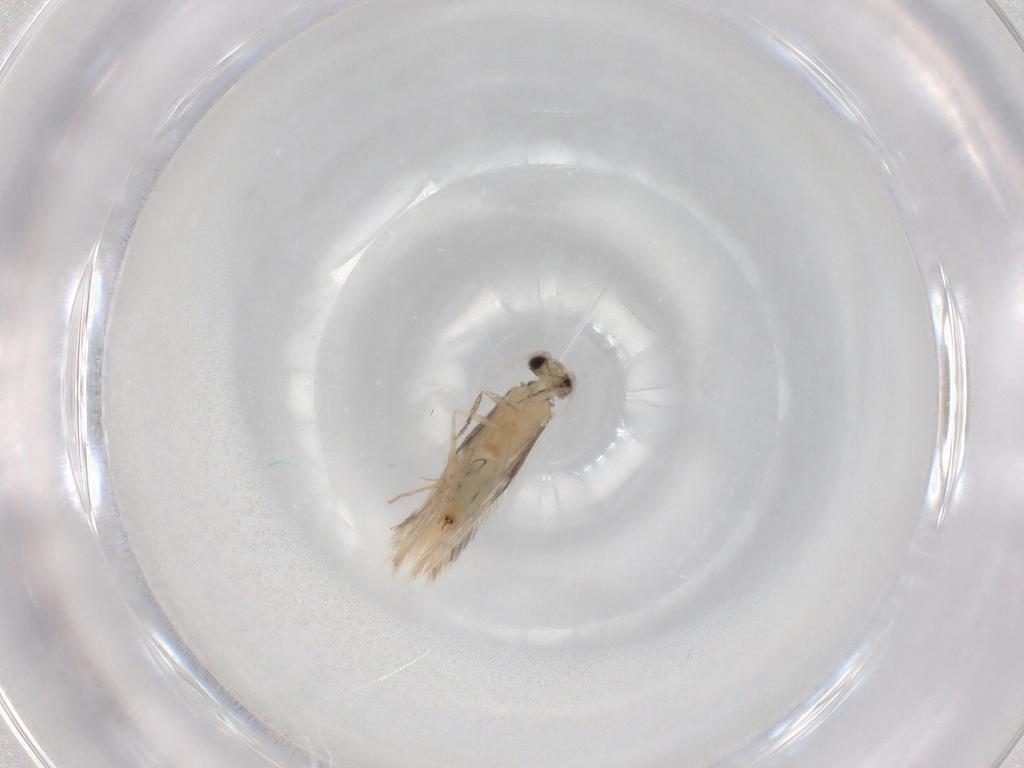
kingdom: Animalia
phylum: Arthropoda
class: Insecta
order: Trichoptera
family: Hydroptilidae
